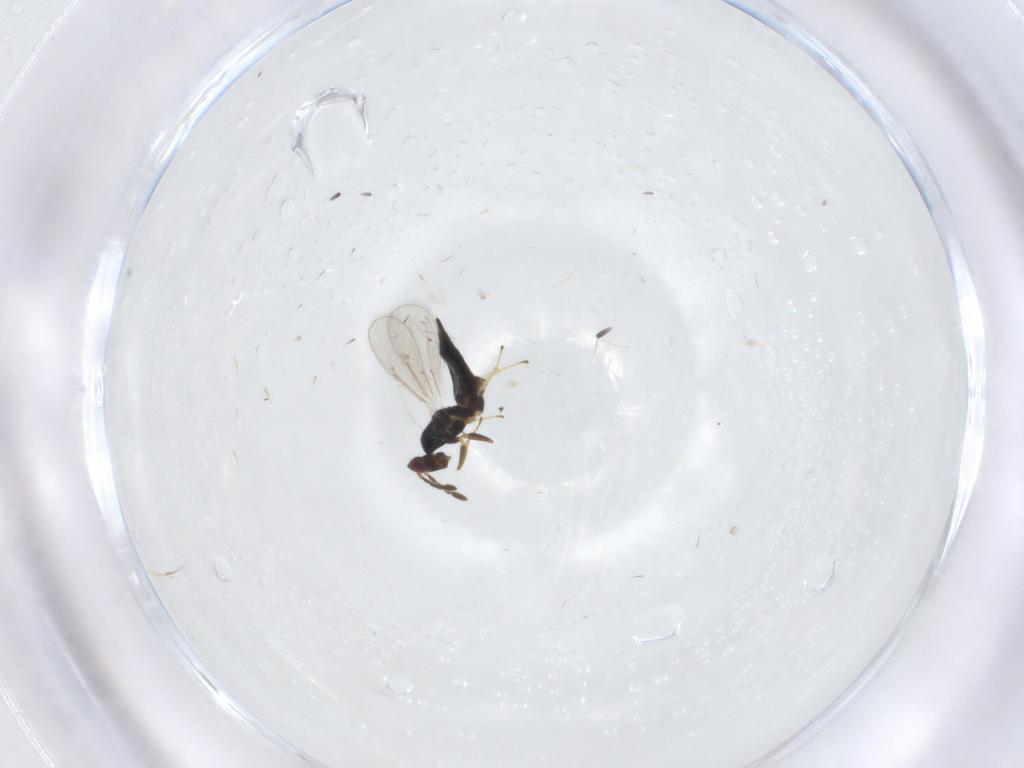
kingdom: Animalia
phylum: Arthropoda
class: Insecta
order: Hymenoptera
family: Eulophidae
